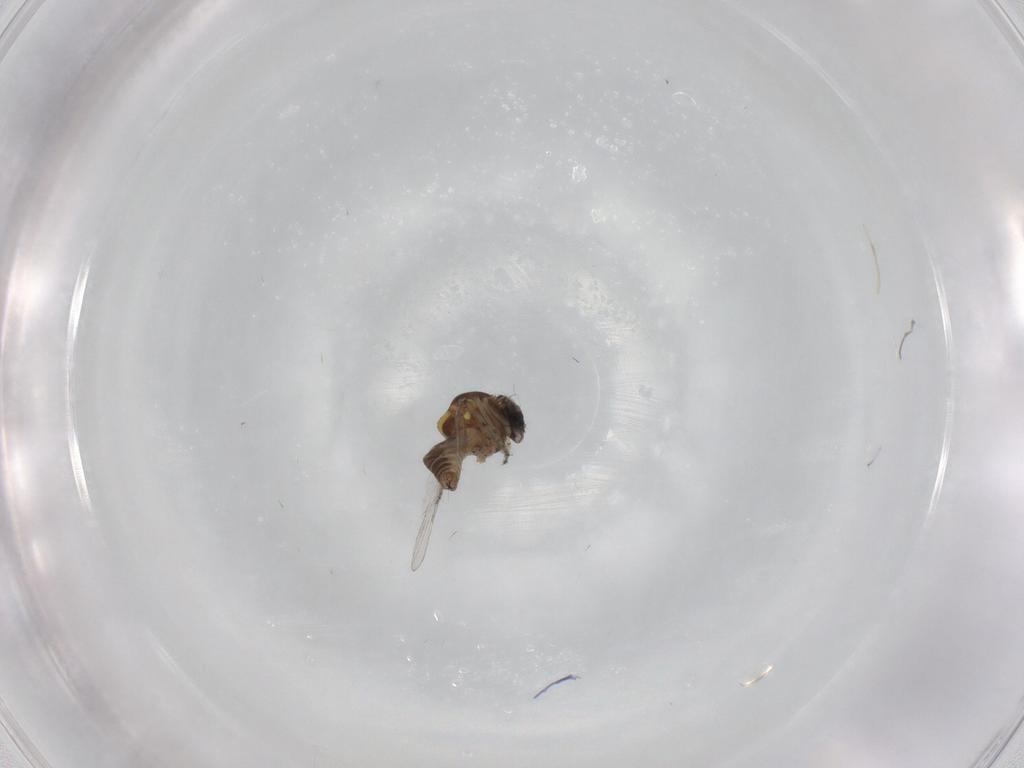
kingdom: Animalia
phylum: Arthropoda
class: Insecta
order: Diptera
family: Ceratopogonidae
